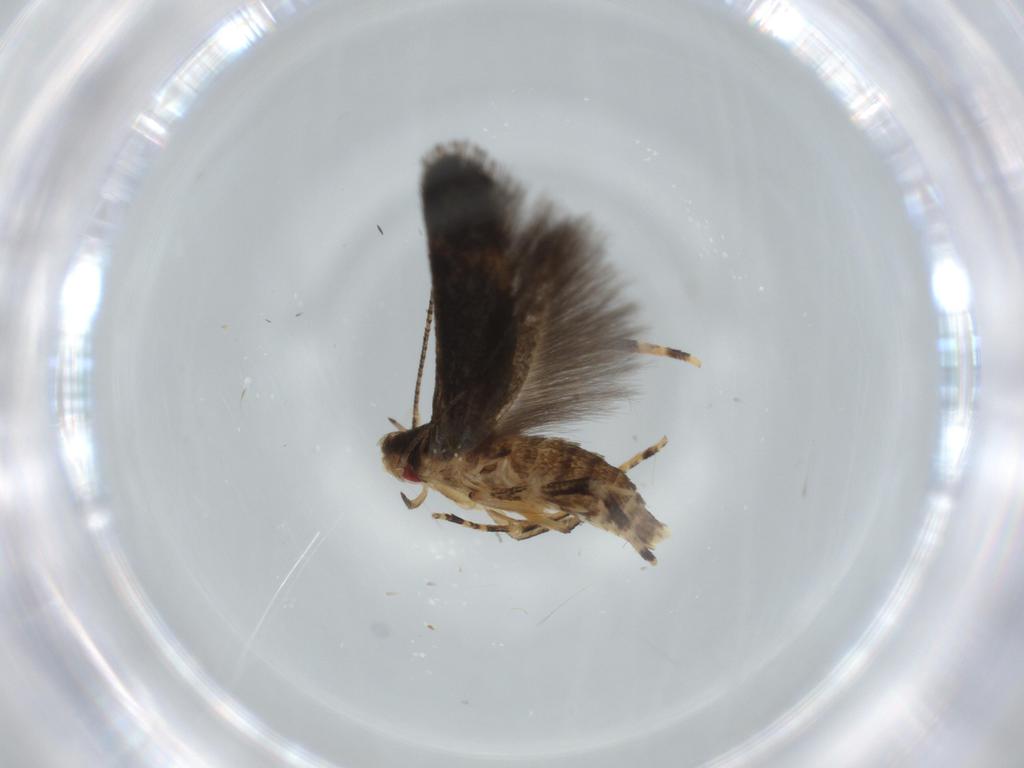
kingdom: Animalia
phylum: Arthropoda
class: Insecta
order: Lepidoptera
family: Momphidae
